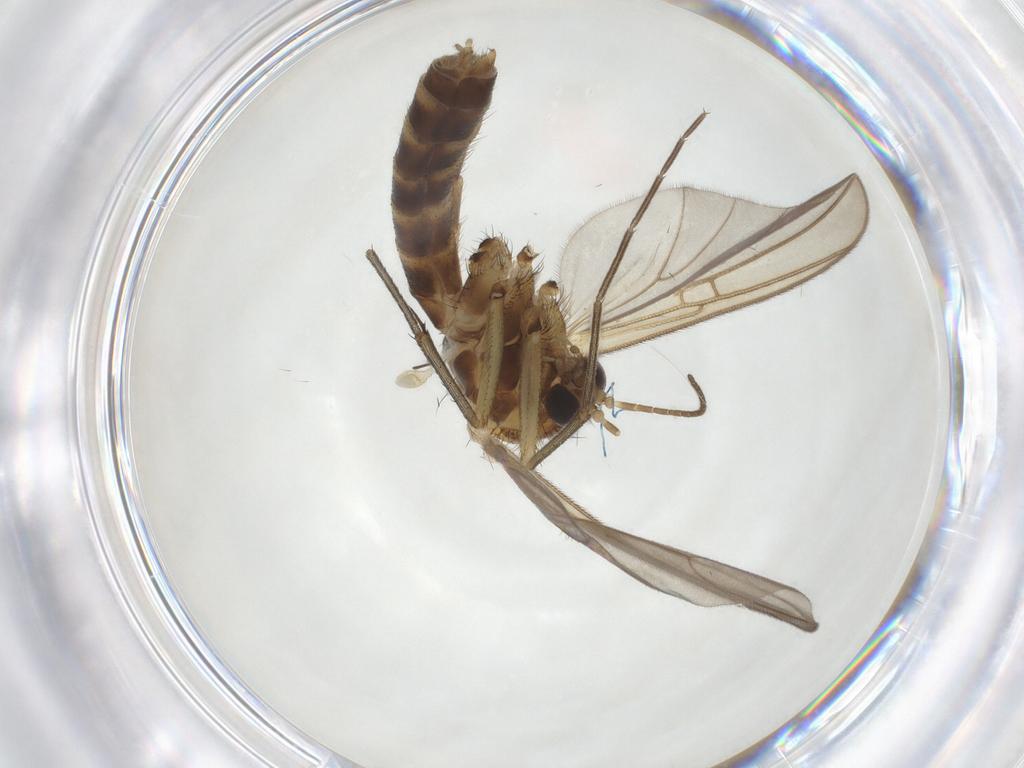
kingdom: Animalia
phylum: Arthropoda
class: Insecta
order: Diptera
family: Mycetophilidae
